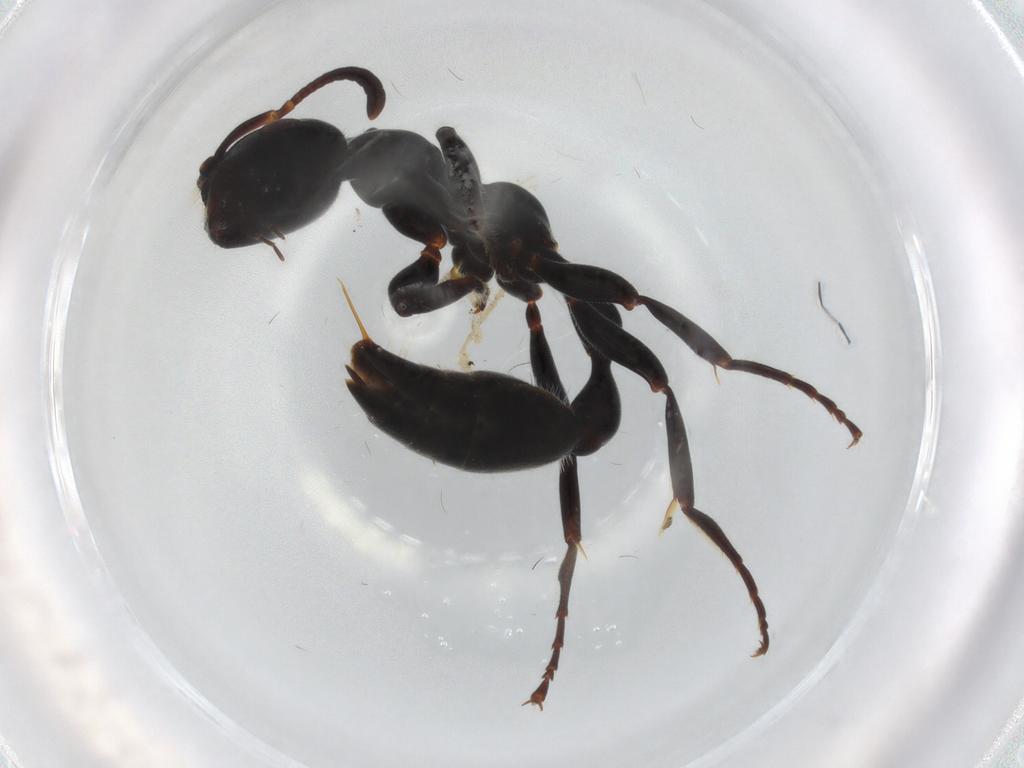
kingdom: Animalia
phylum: Arthropoda
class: Insecta
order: Hymenoptera
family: Formicidae
